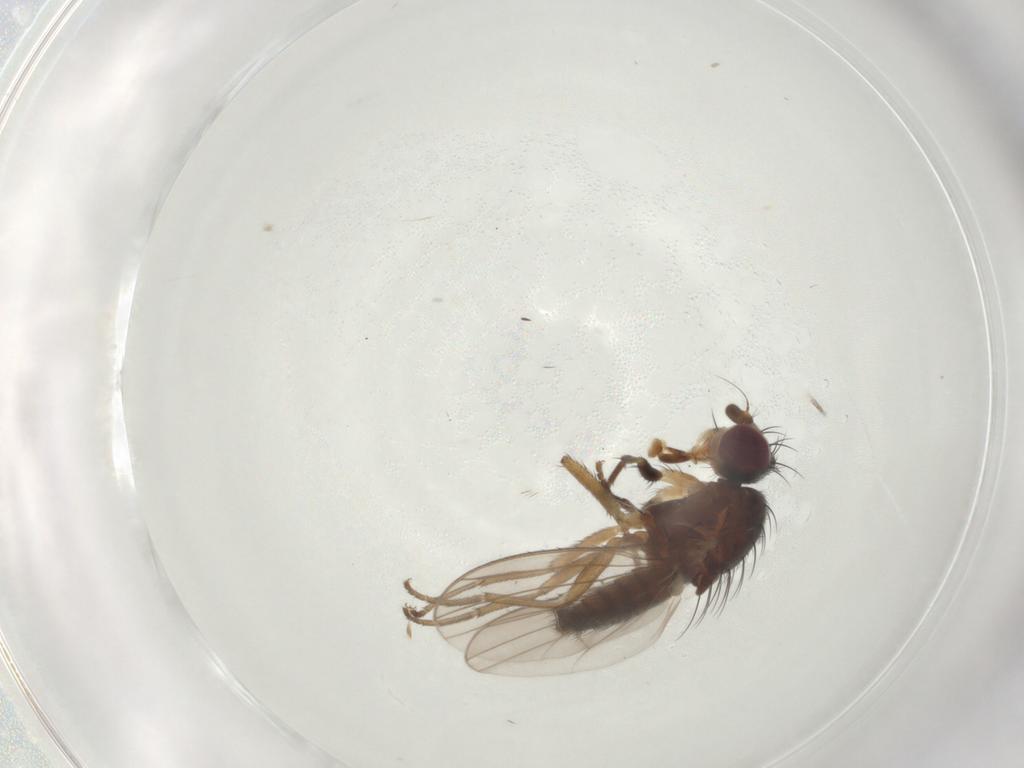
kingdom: Animalia
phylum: Arthropoda
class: Insecta
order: Diptera
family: Heleomyzidae
